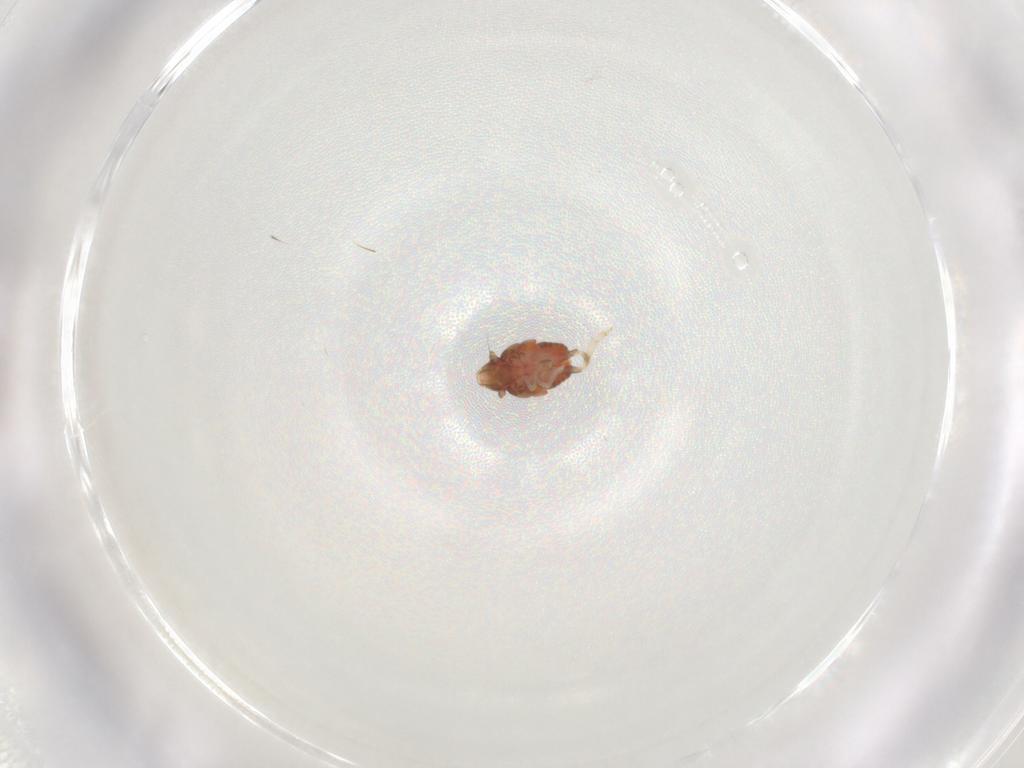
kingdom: Animalia
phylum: Arthropoda
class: Insecta
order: Hemiptera
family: Caliscelidae
